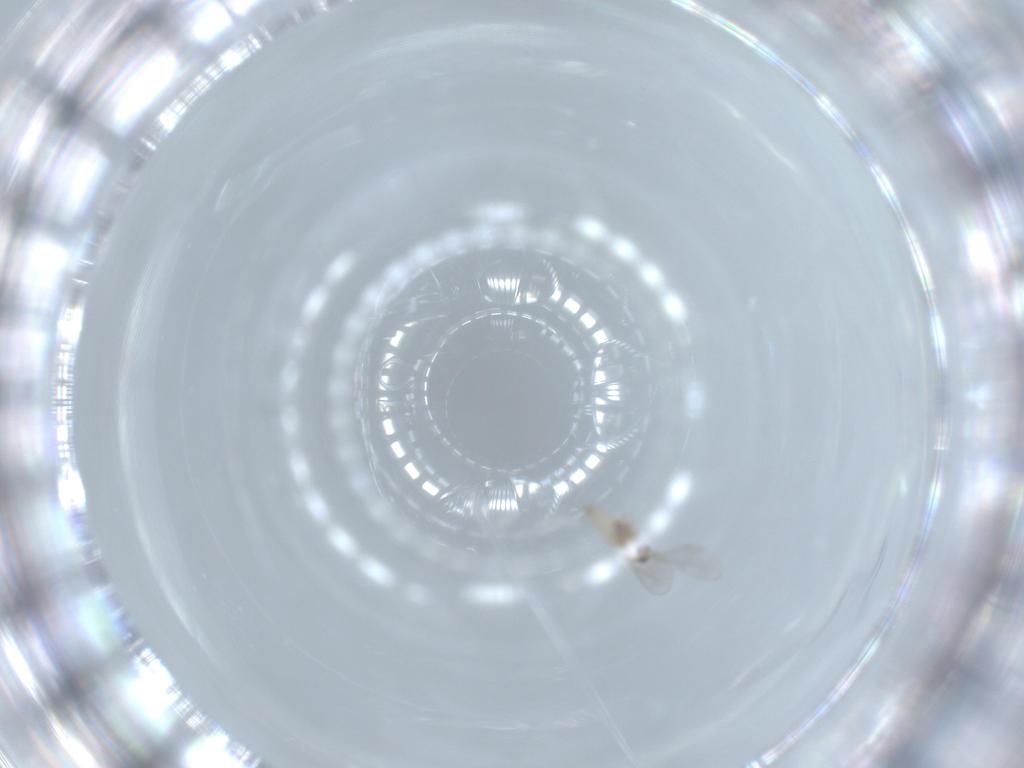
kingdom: Animalia
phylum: Arthropoda
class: Insecta
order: Diptera
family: Cecidomyiidae
